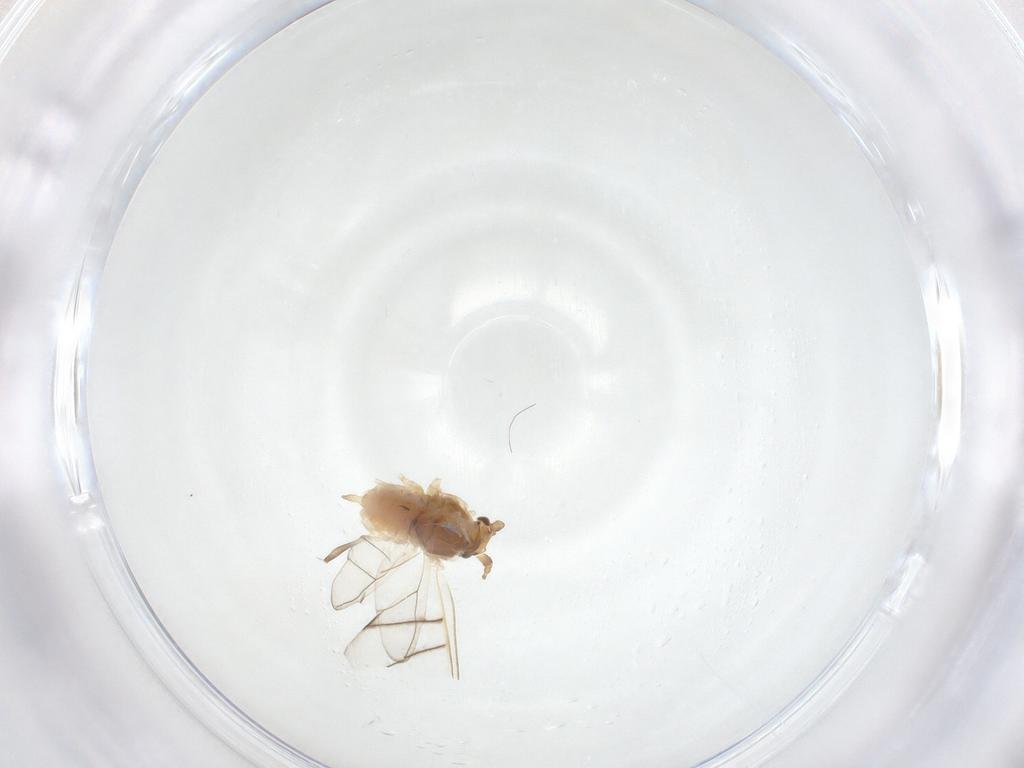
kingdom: Animalia
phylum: Arthropoda
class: Insecta
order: Hemiptera
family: Aphididae
